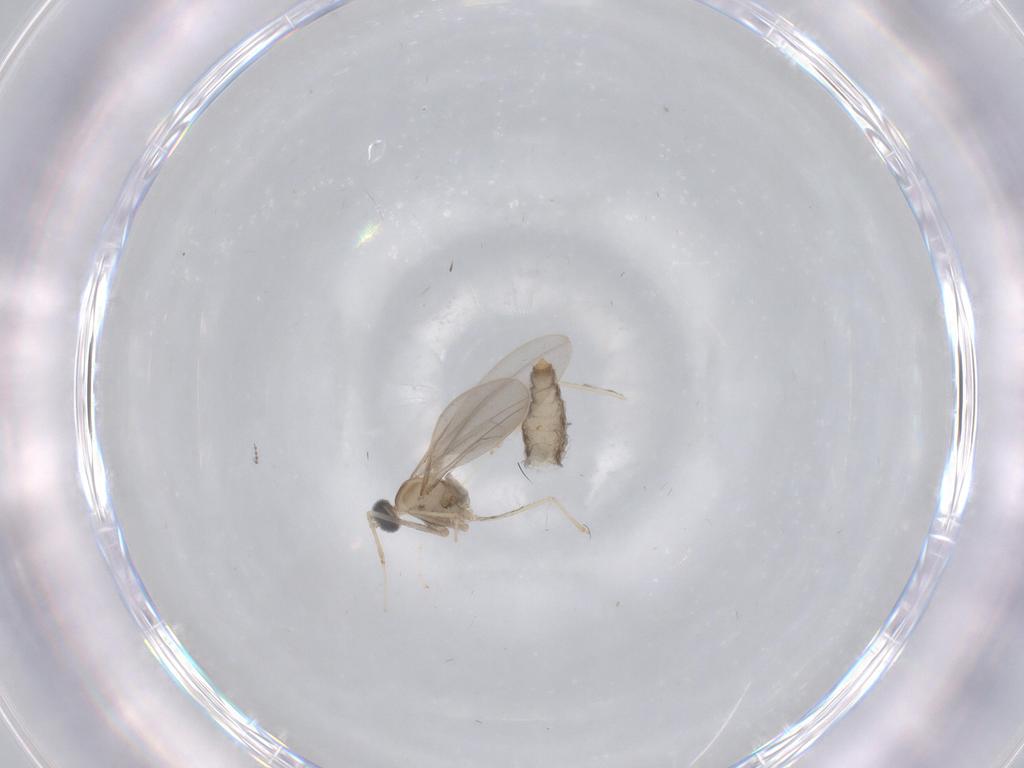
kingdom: Animalia
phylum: Arthropoda
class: Insecta
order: Diptera
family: Cecidomyiidae
